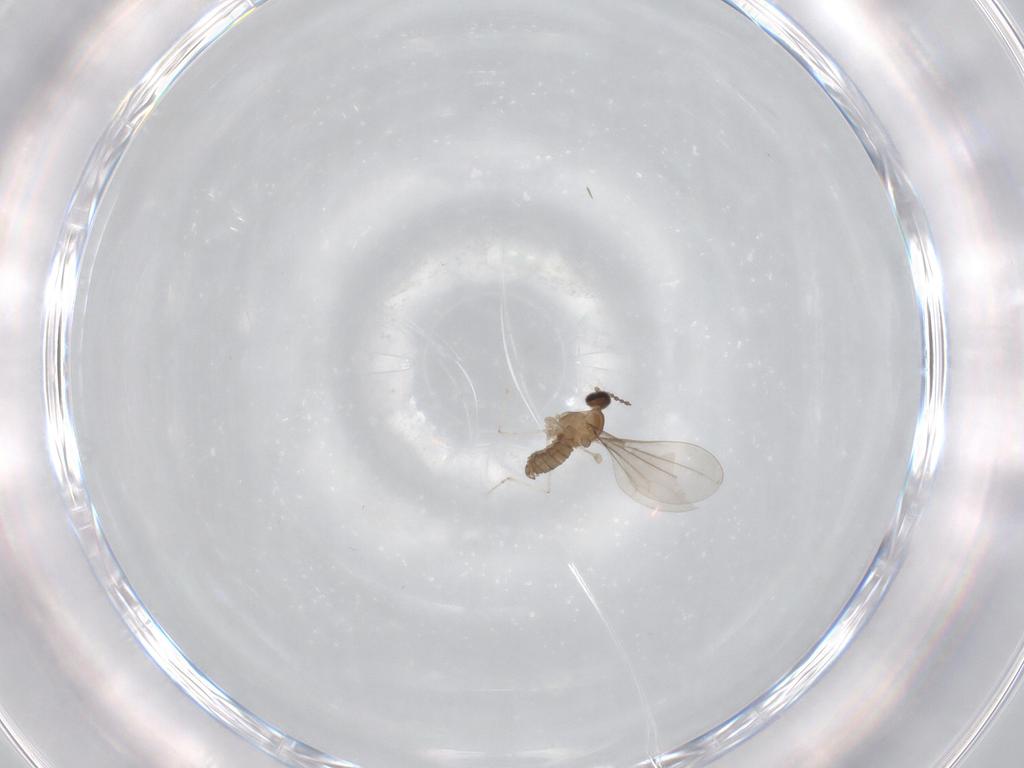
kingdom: Animalia
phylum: Arthropoda
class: Insecta
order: Diptera
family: Cecidomyiidae
